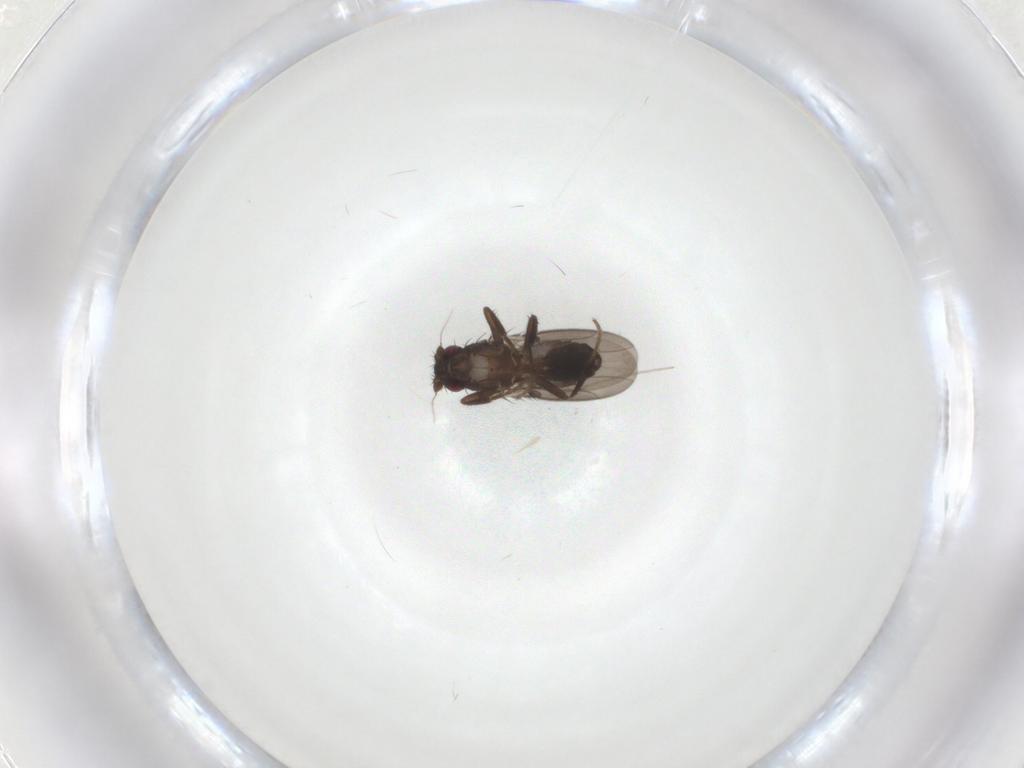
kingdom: Animalia
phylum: Arthropoda
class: Insecta
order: Diptera
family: Sphaeroceridae
